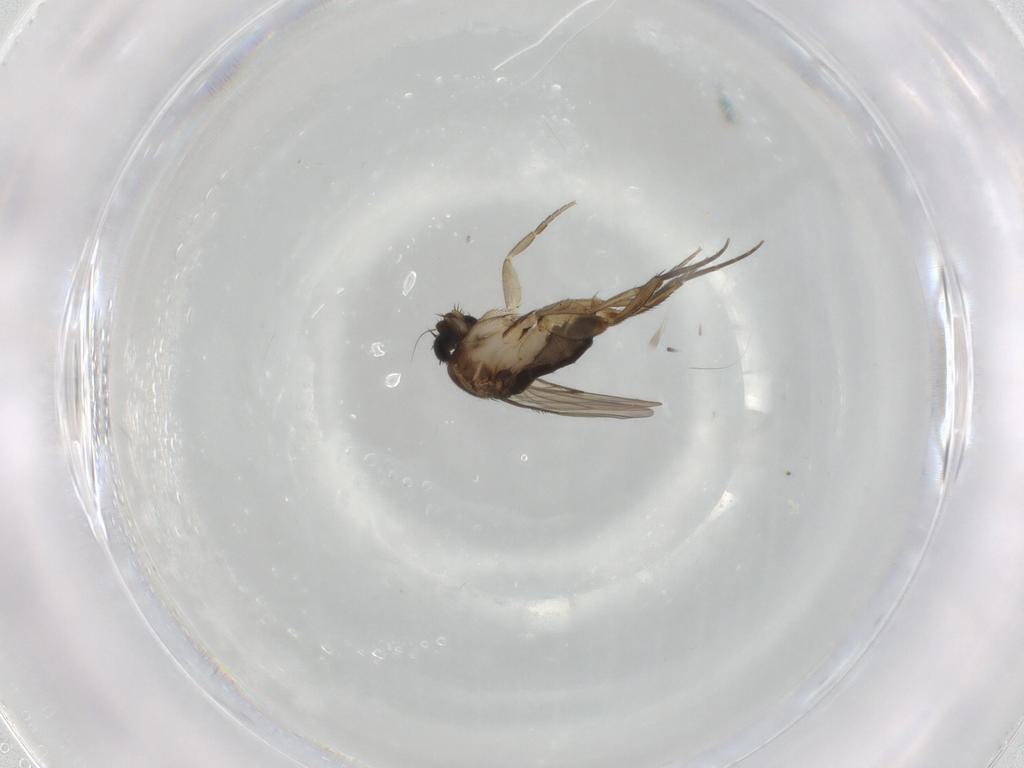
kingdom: Animalia
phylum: Arthropoda
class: Insecta
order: Diptera
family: Phoridae
